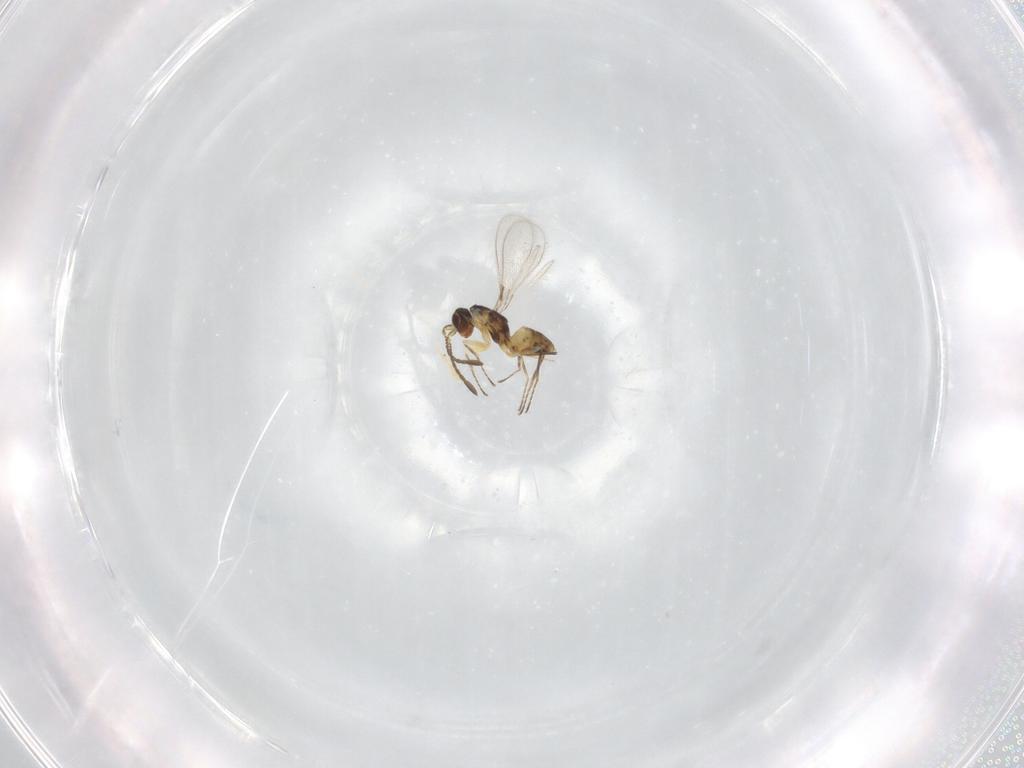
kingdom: Animalia
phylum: Arthropoda
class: Insecta
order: Hymenoptera
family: Mymaridae
